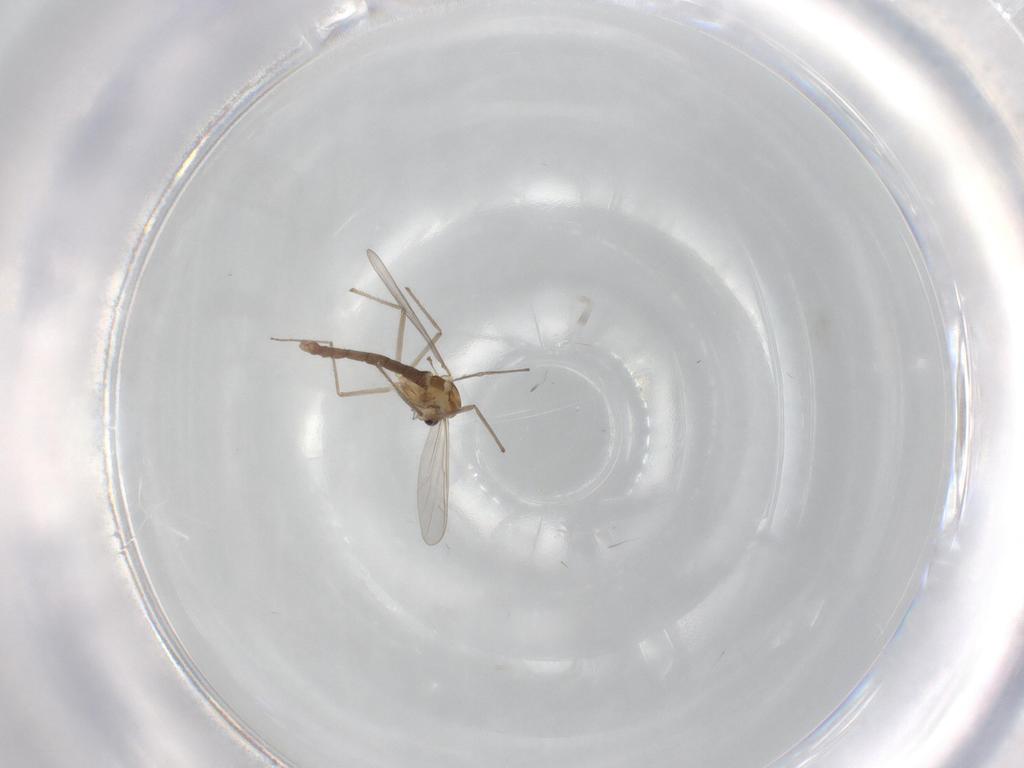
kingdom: Animalia
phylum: Arthropoda
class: Insecta
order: Diptera
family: Chironomidae
